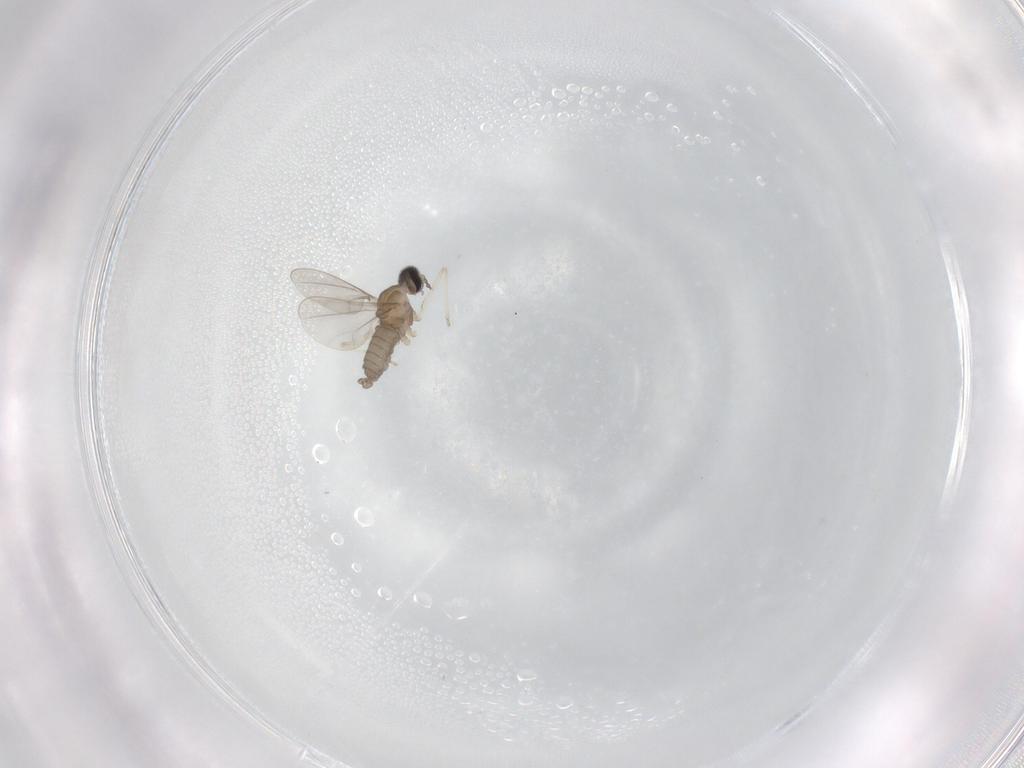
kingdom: Animalia
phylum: Arthropoda
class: Insecta
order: Diptera
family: Cecidomyiidae
